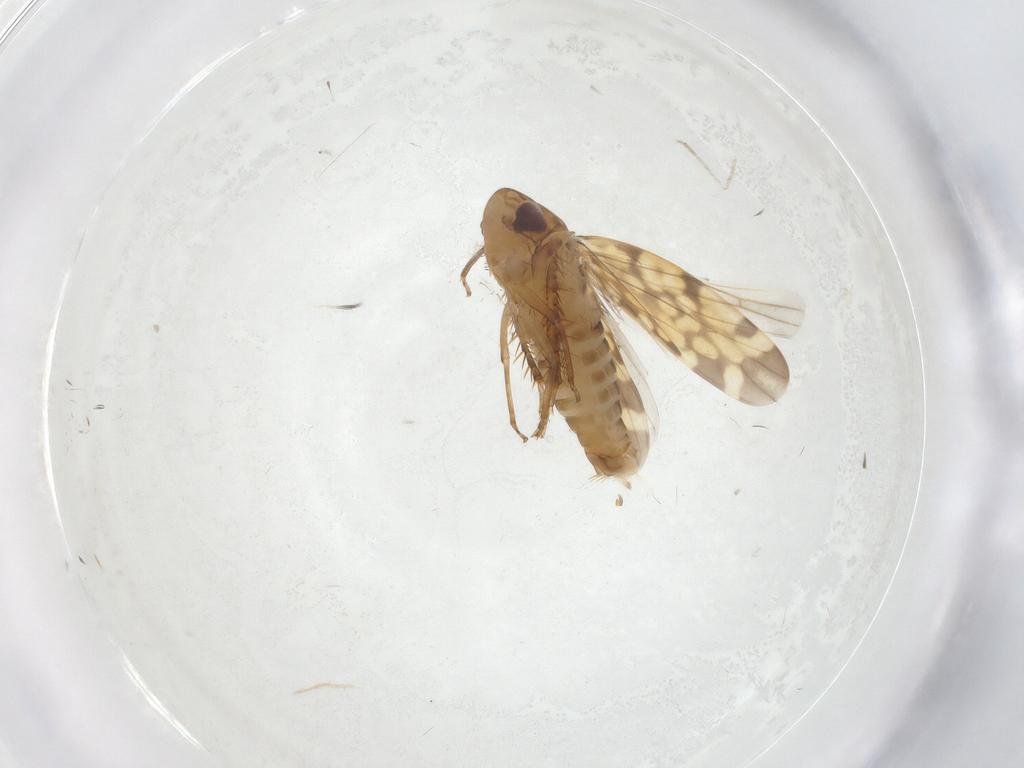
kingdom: Animalia
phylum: Arthropoda
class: Insecta
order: Hemiptera
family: Cicadellidae
